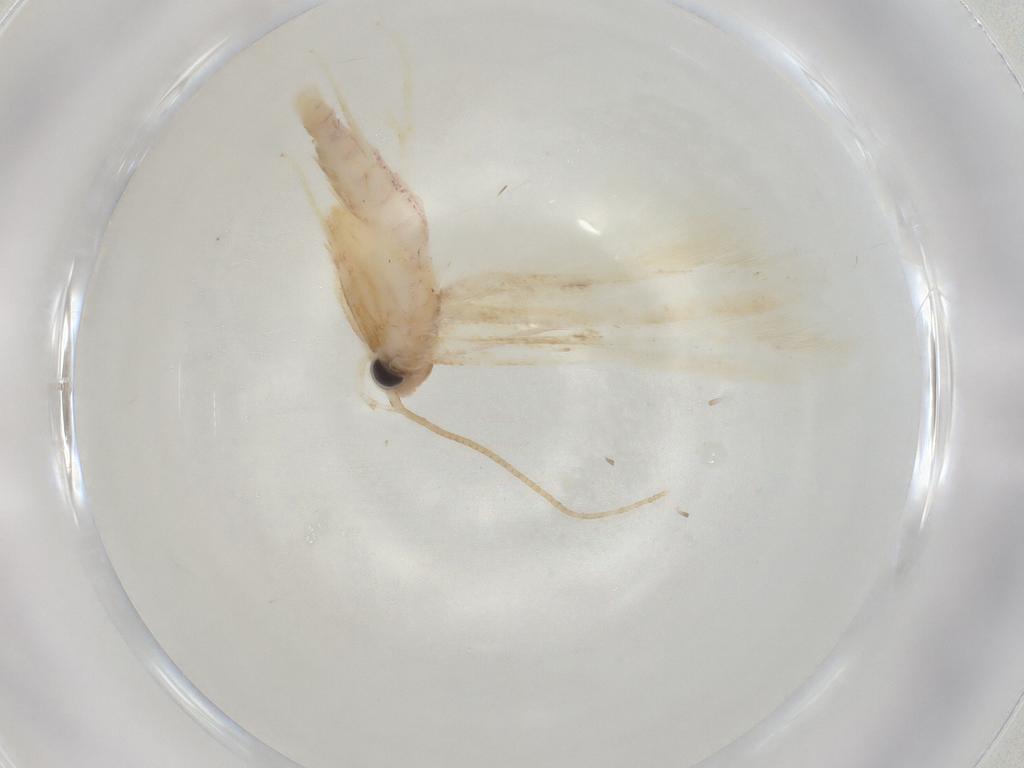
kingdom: Animalia
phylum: Arthropoda
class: Insecta
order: Lepidoptera
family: Batrachedridae
